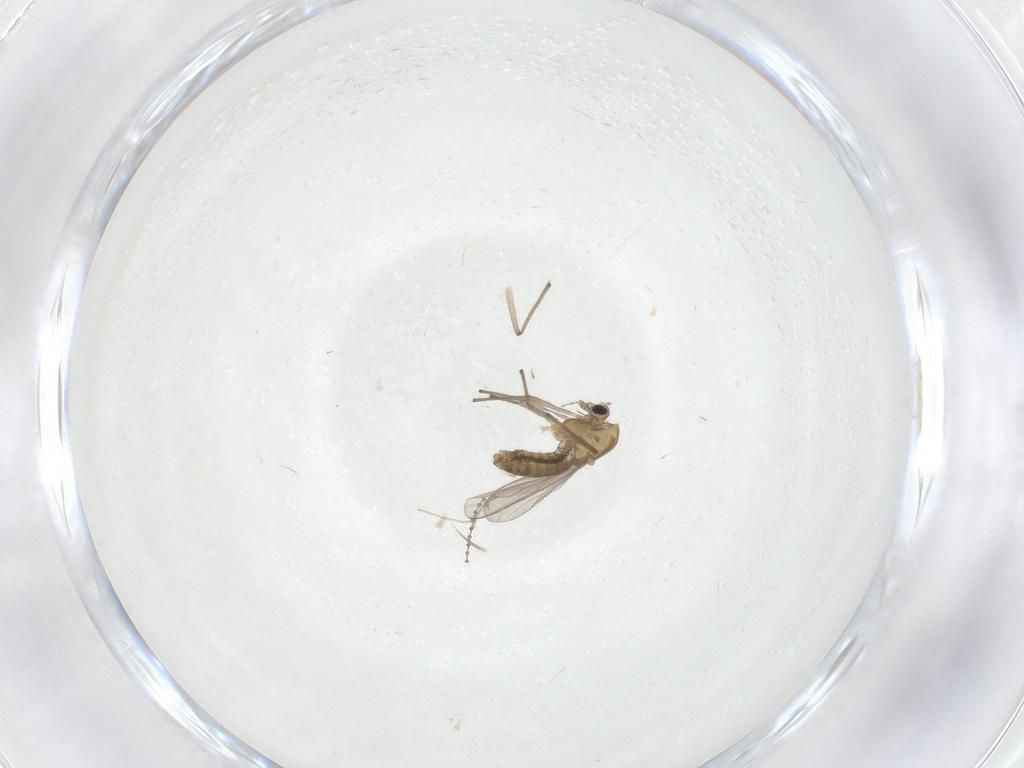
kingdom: Animalia
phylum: Arthropoda
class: Insecta
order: Diptera
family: Chironomidae
